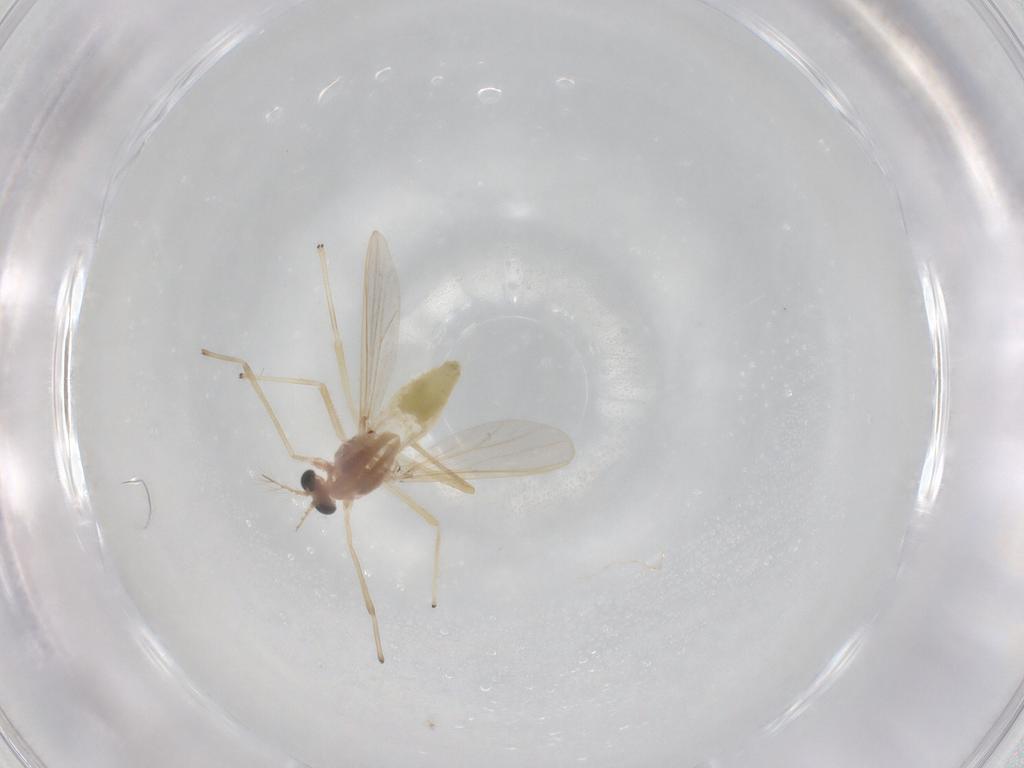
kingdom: Animalia
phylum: Arthropoda
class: Insecta
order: Diptera
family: Chironomidae
